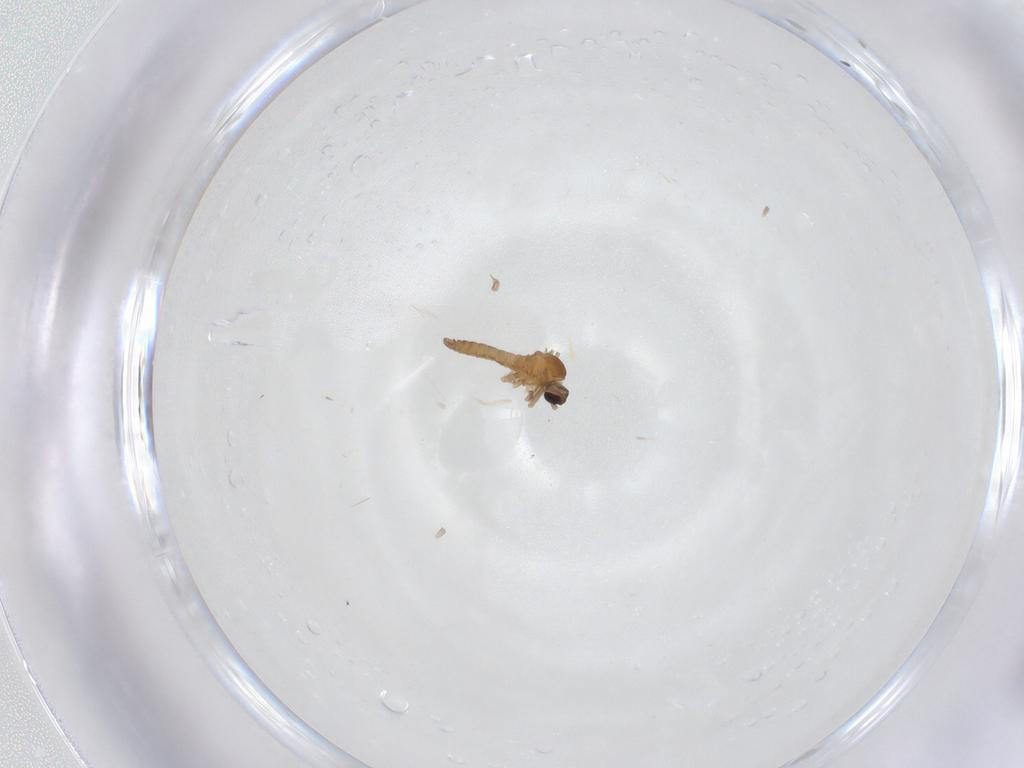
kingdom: Animalia
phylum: Arthropoda
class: Insecta
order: Diptera
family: Cecidomyiidae
